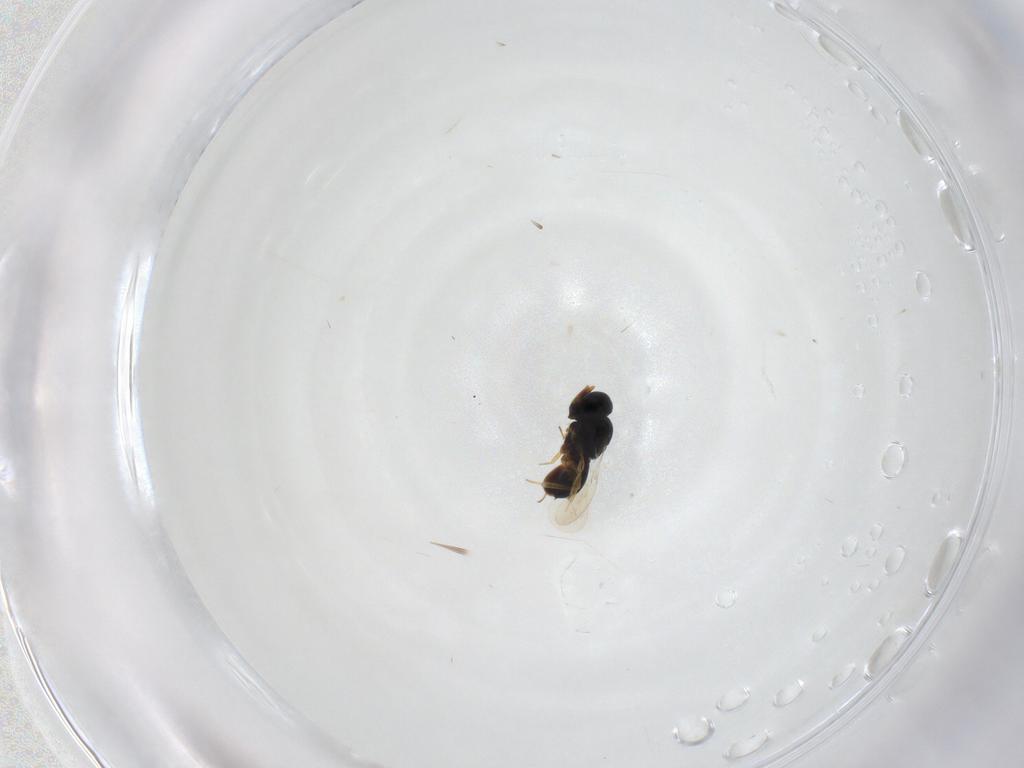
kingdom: Animalia
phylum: Arthropoda
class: Insecta
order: Hymenoptera
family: Scelionidae
